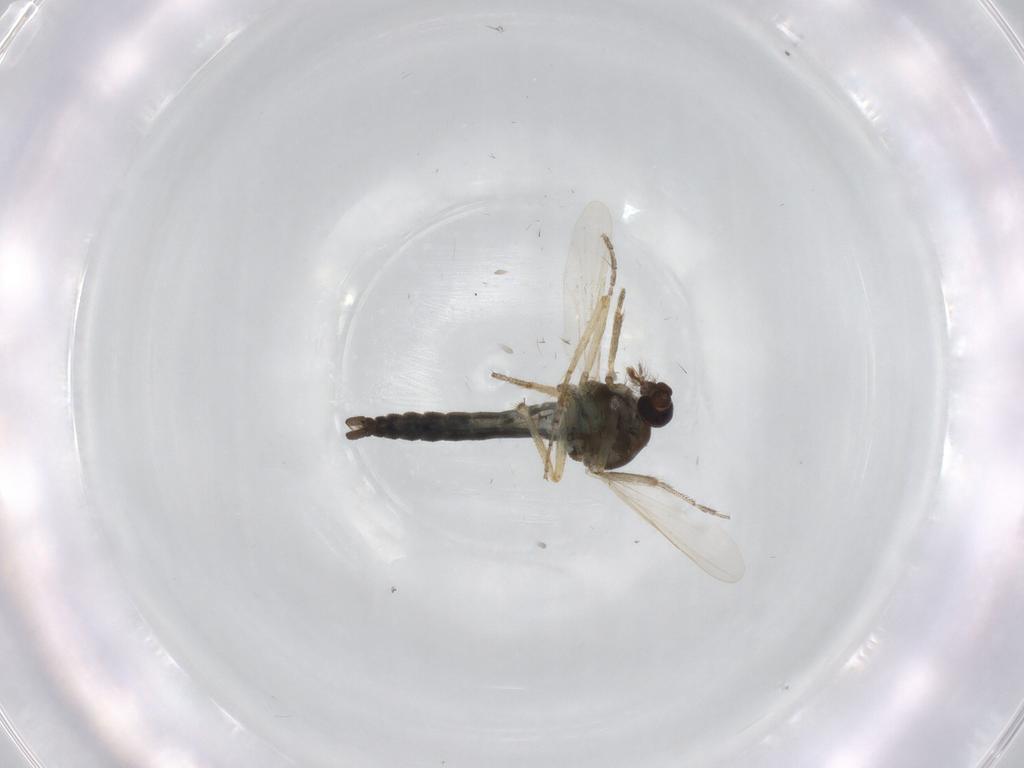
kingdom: Animalia
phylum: Arthropoda
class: Insecta
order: Diptera
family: Ceratopogonidae
